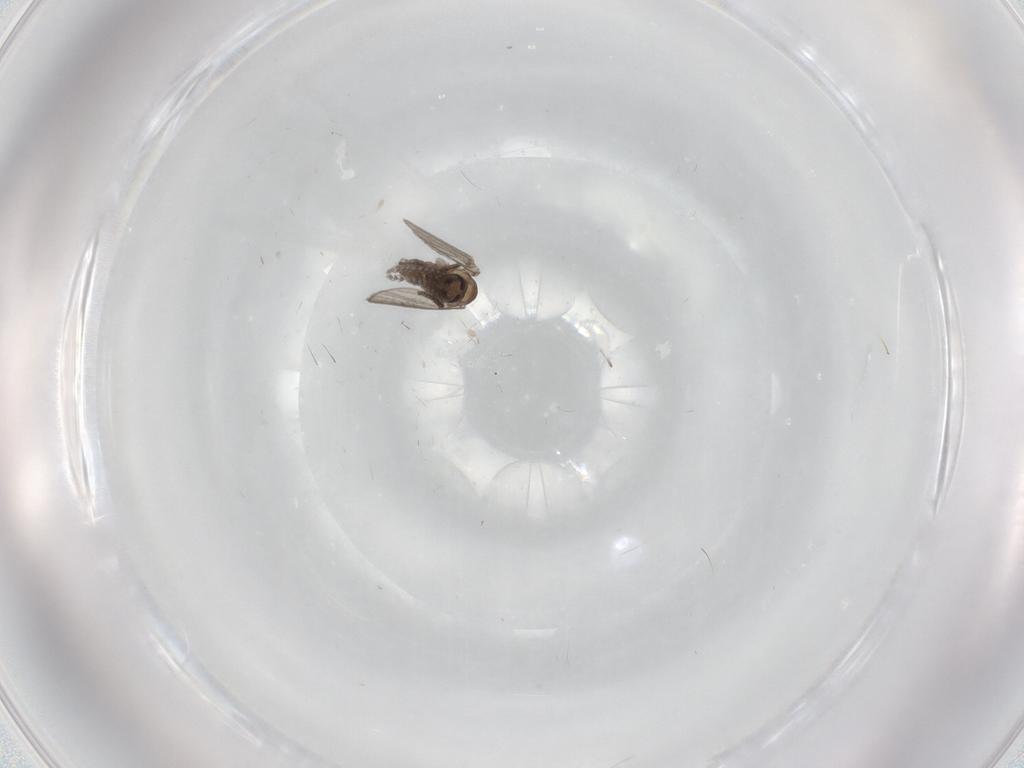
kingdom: Animalia
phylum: Arthropoda
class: Insecta
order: Diptera
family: Psychodidae
